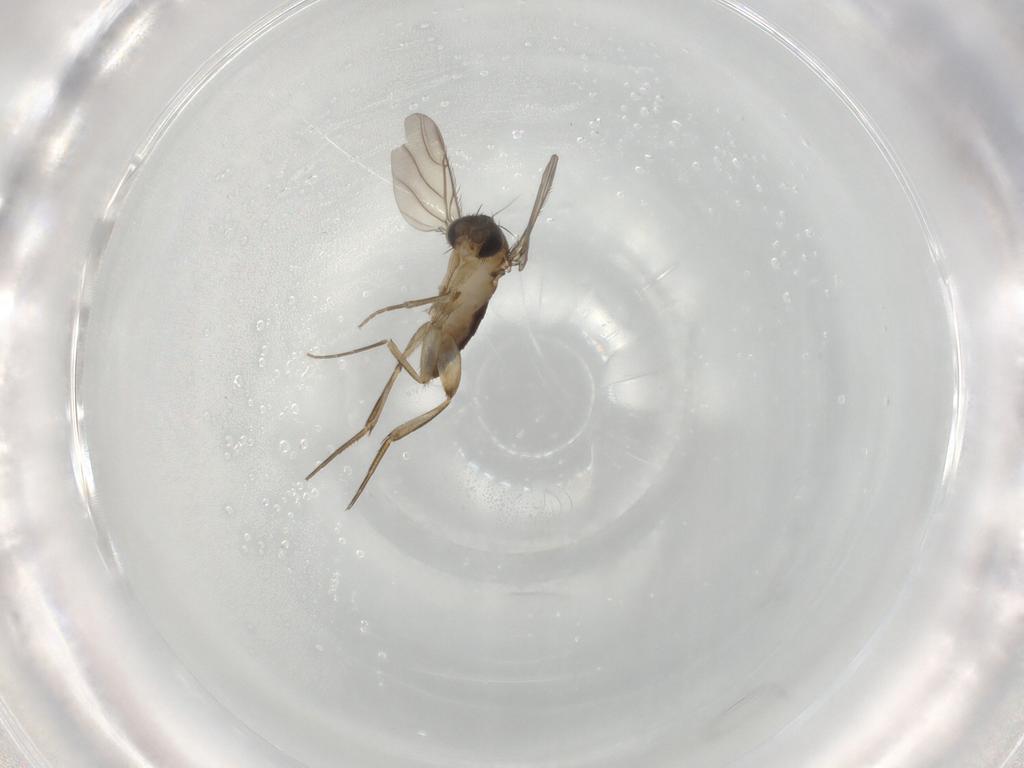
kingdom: Animalia
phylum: Arthropoda
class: Insecta
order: Diptera
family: Phoridae
